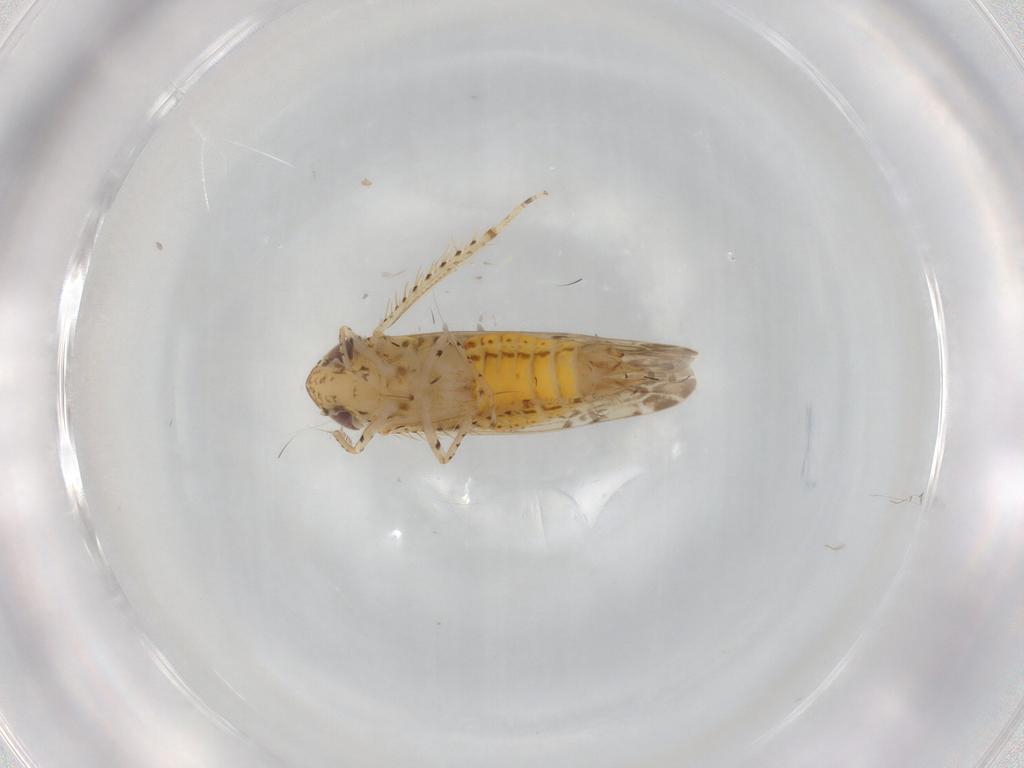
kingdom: Animalia
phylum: Arthropoda
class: Insecta
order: Hemiptera
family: Cicadellidae
